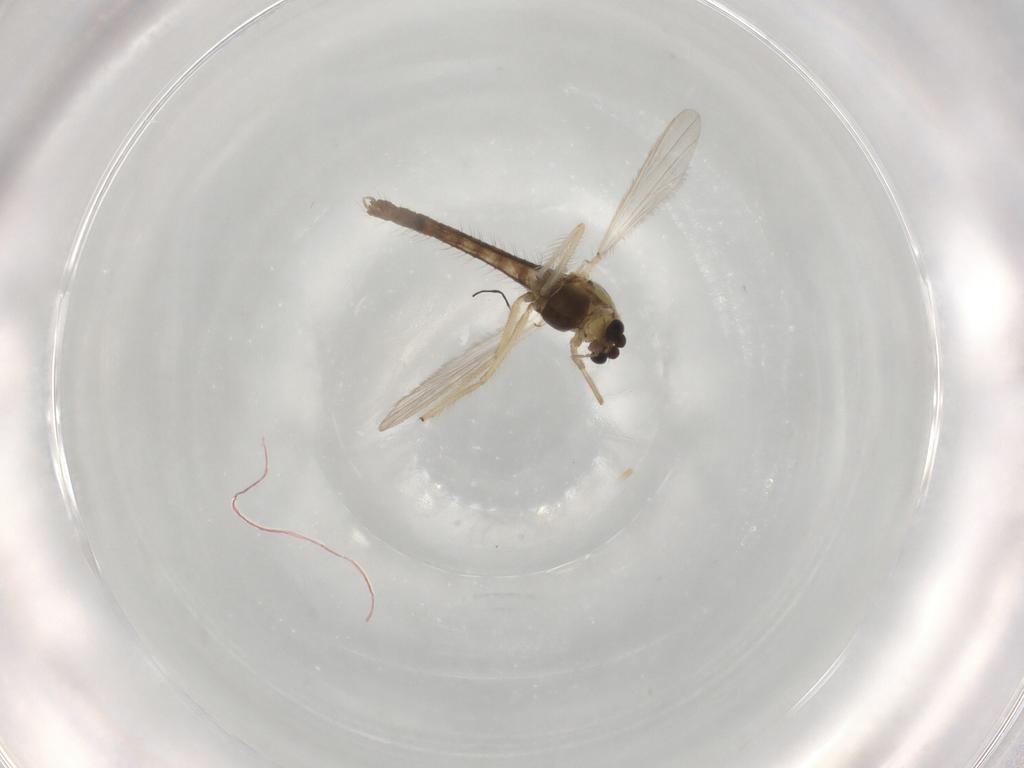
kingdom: Animalia
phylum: Arthropoda
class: Insecta
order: Diptera
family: Chironomidae
